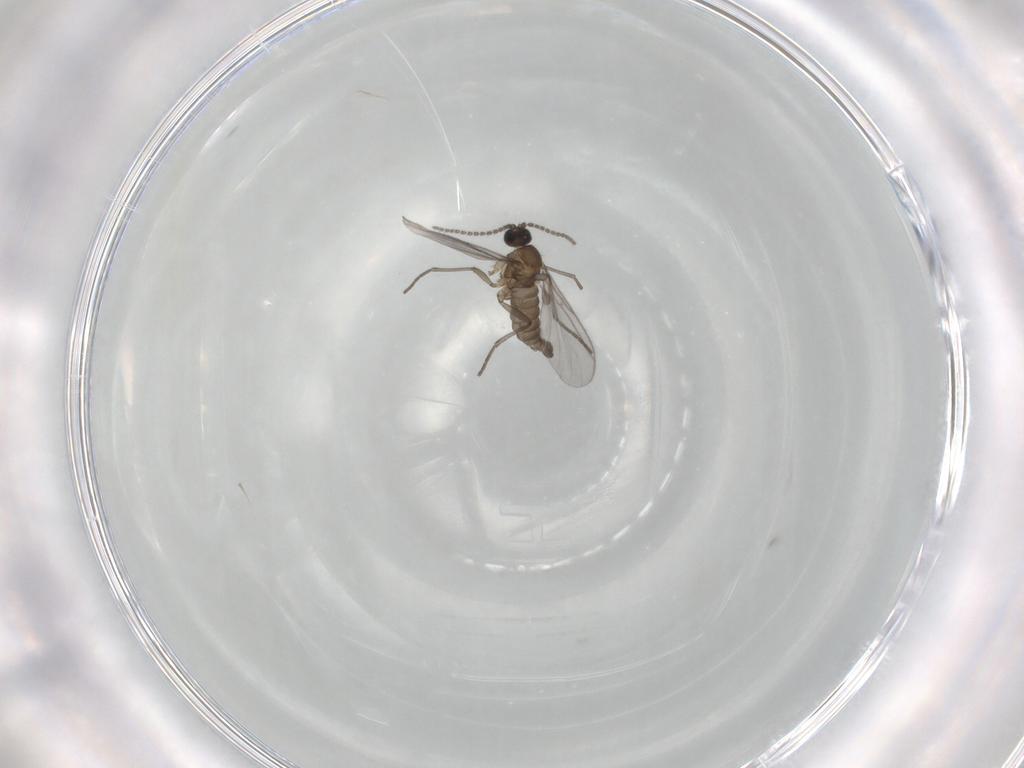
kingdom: Animalia
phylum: Arthropoda
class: Insecta
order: Diptera
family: Cecidomyiidae
